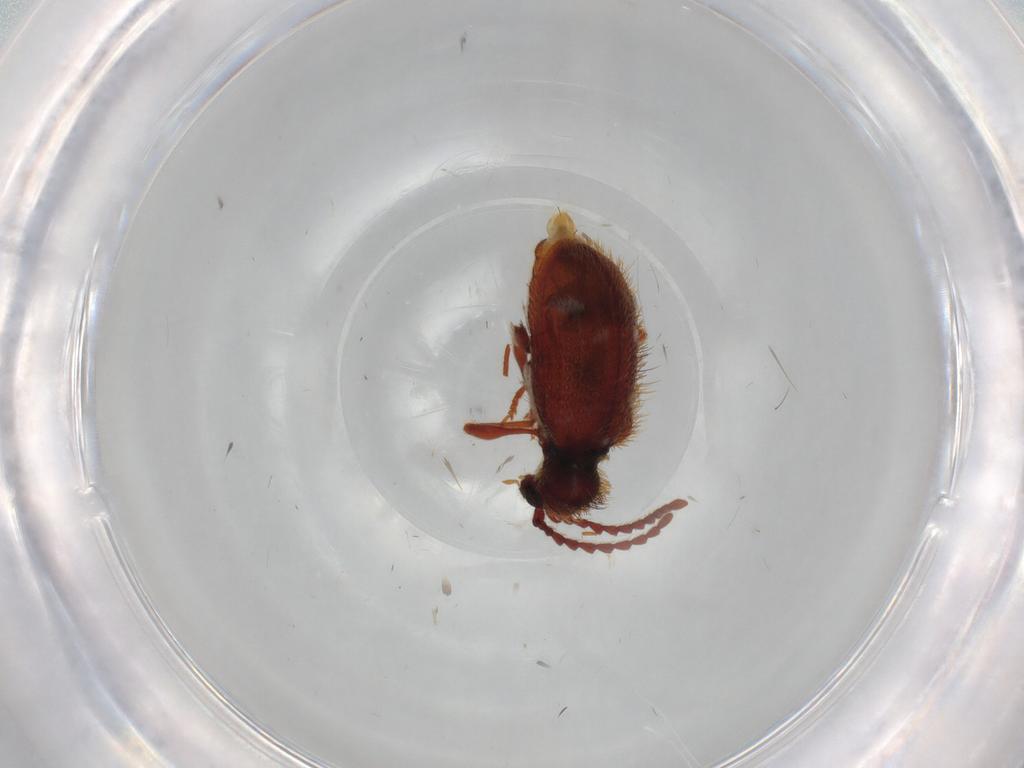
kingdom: Animalia
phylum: Arthropoda
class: Insecta
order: Coleoptera
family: Ptinidae
